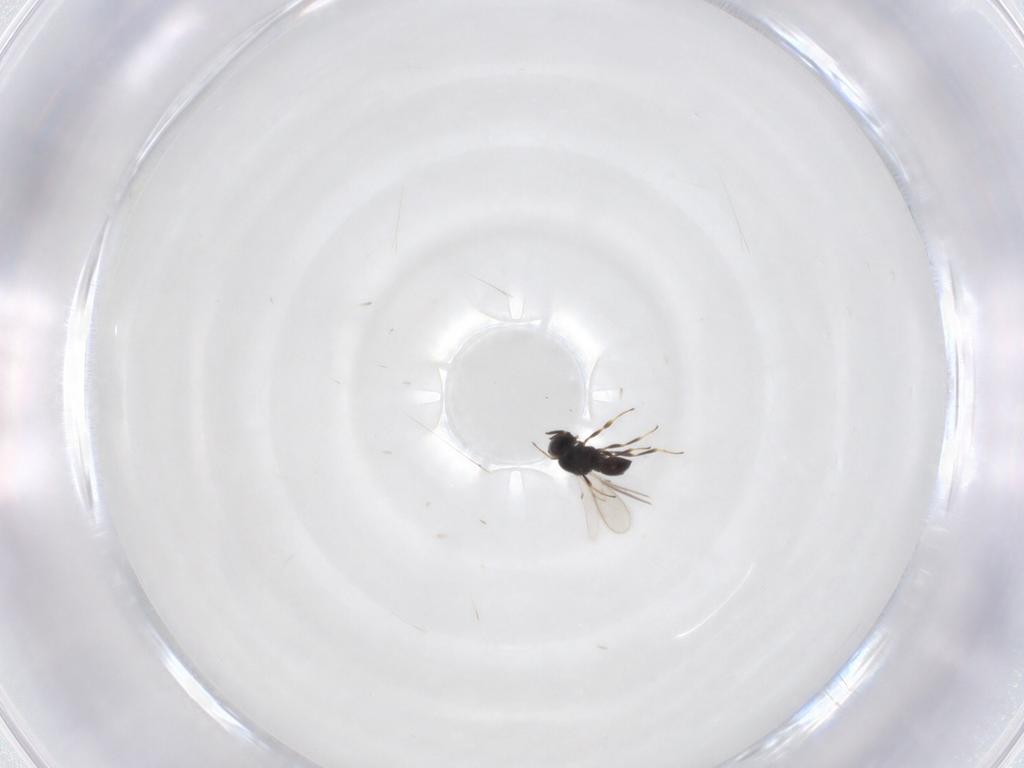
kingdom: Animalia
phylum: Arthropoda
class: Insecta
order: Hymenoptera
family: Scelionidae
